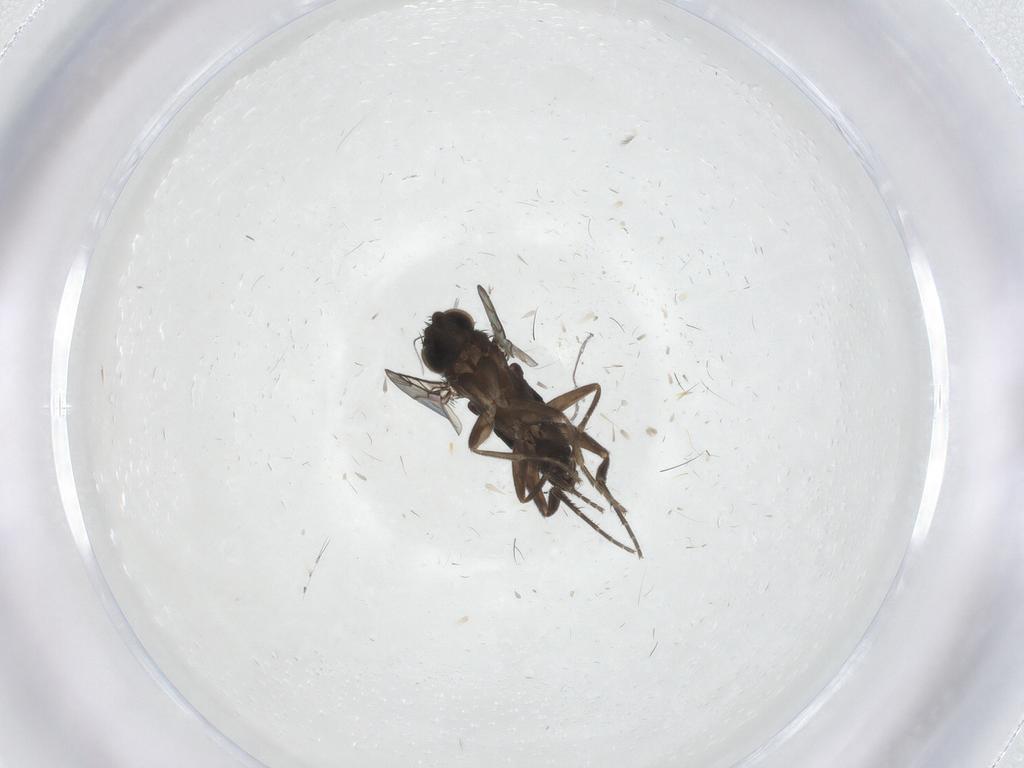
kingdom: Animalia
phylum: Arthropoda
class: Insecta
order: Diptera
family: Phoridae
